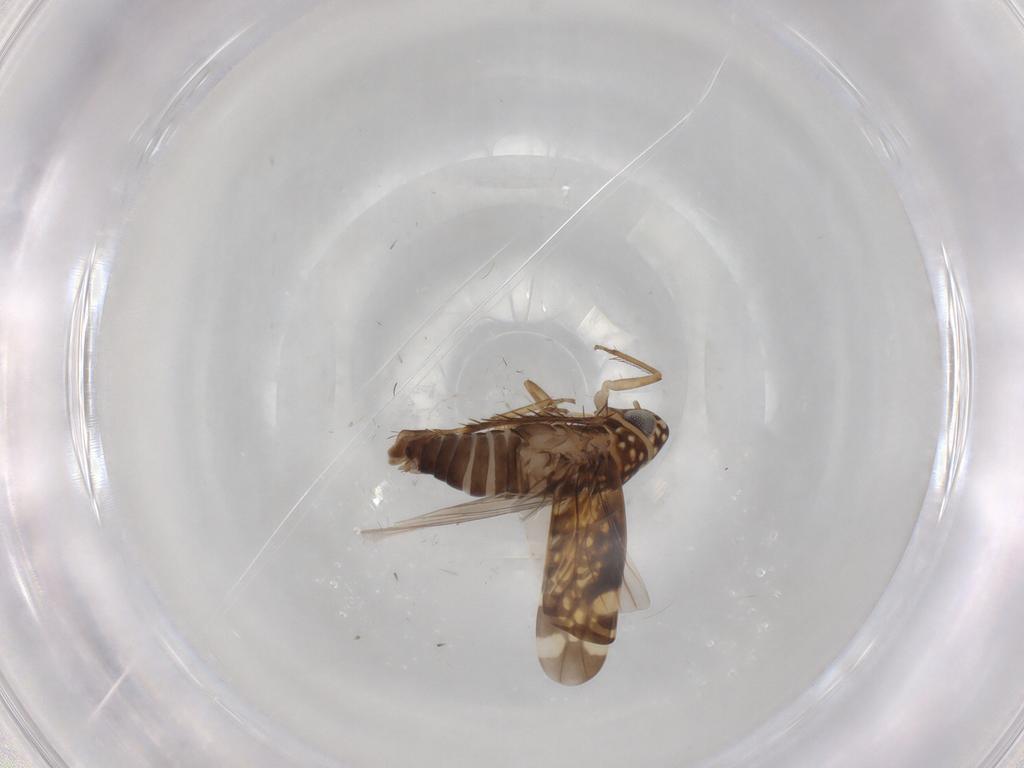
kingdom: Animalia
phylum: Arthropoda
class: Insecta
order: Hemiptera
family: Cicadellidae
